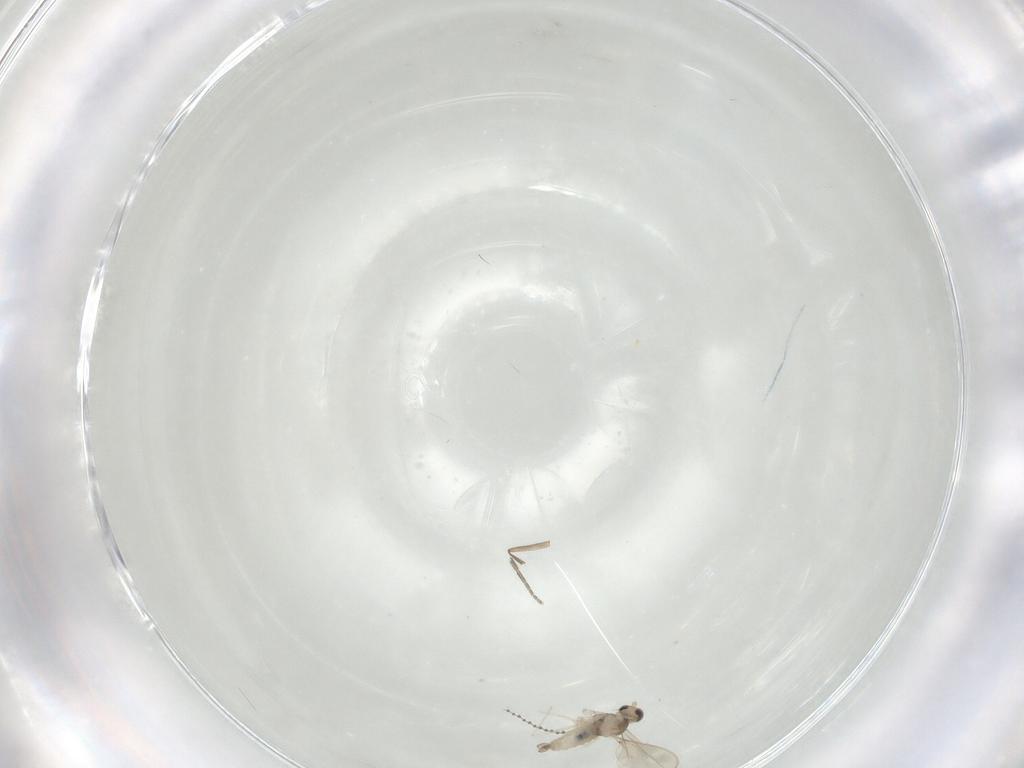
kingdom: Animalia
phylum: Arthropoda
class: Insecta
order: Diptera
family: Cecidomyiidae
